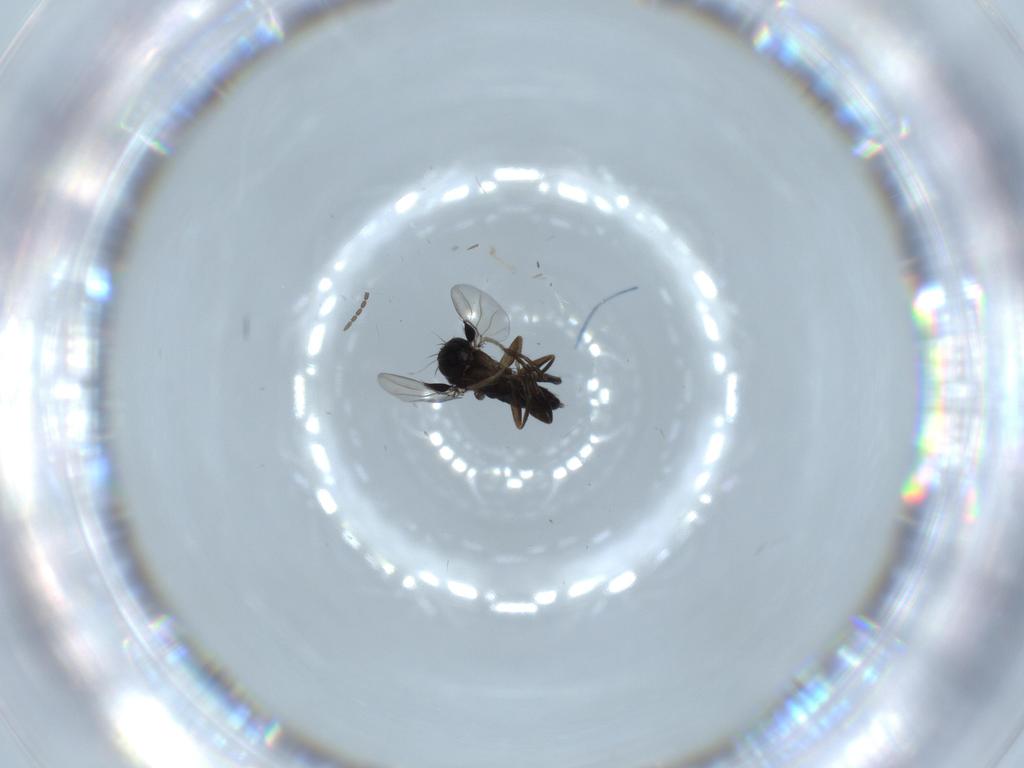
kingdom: Animalia
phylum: Arthropoda
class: Insecta
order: Diptera
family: Phoridae
